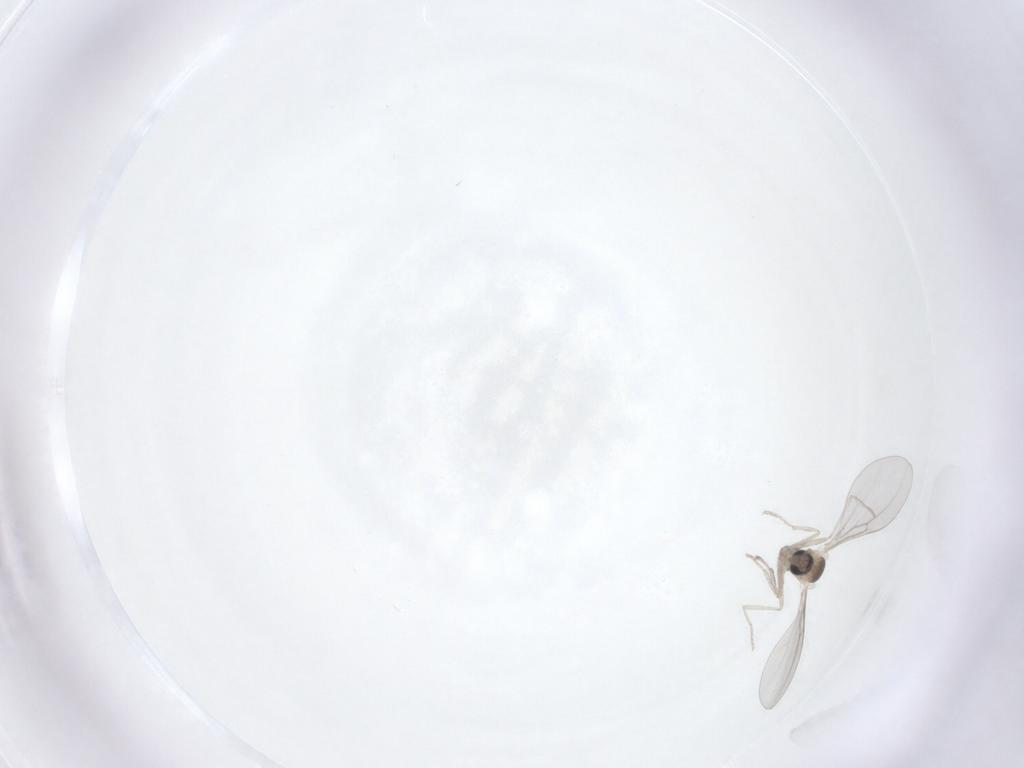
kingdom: Animalia
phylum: Arthropoda
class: Insecta
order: Diptera
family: Cecidomyiidae
